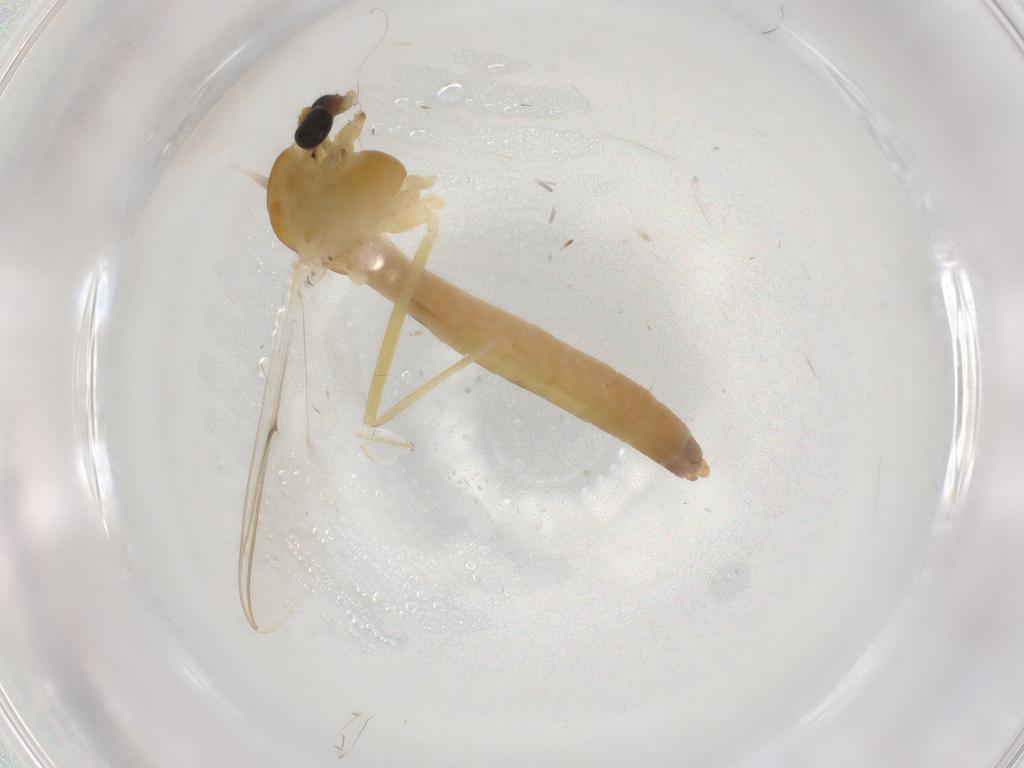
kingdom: Animalia
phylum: Arthropoda
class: Insecta
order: Diptera
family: Chironomidae
